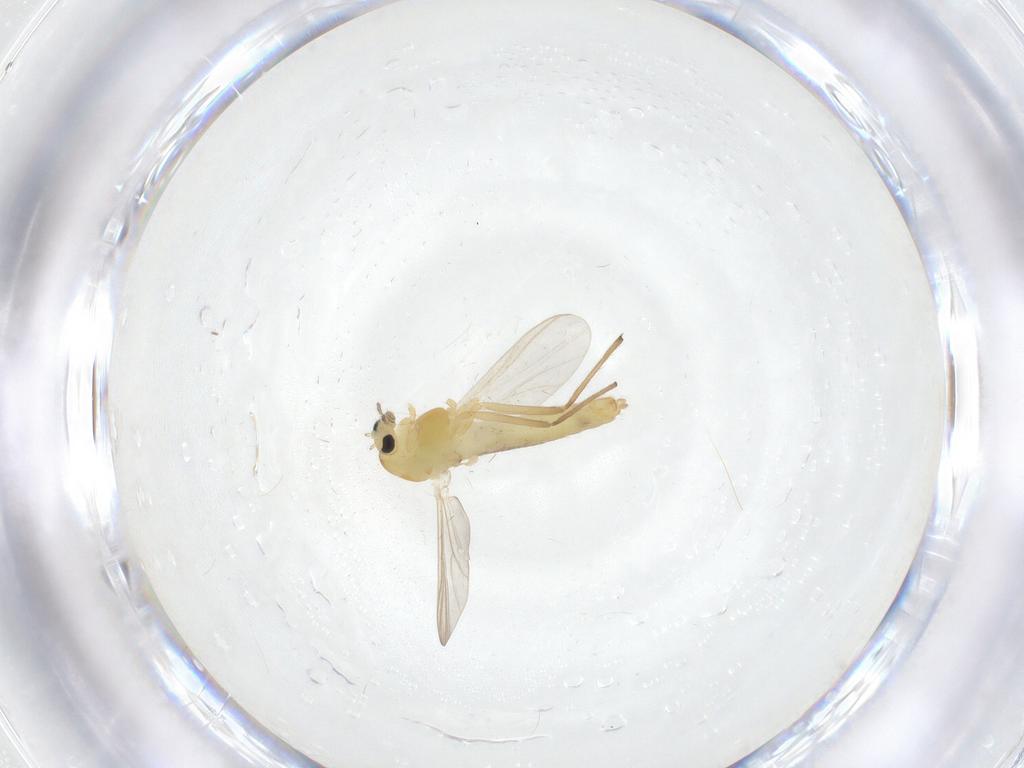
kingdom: Animalia
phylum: Arthropoda
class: Insecta
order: Diptera
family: Chironomidae
